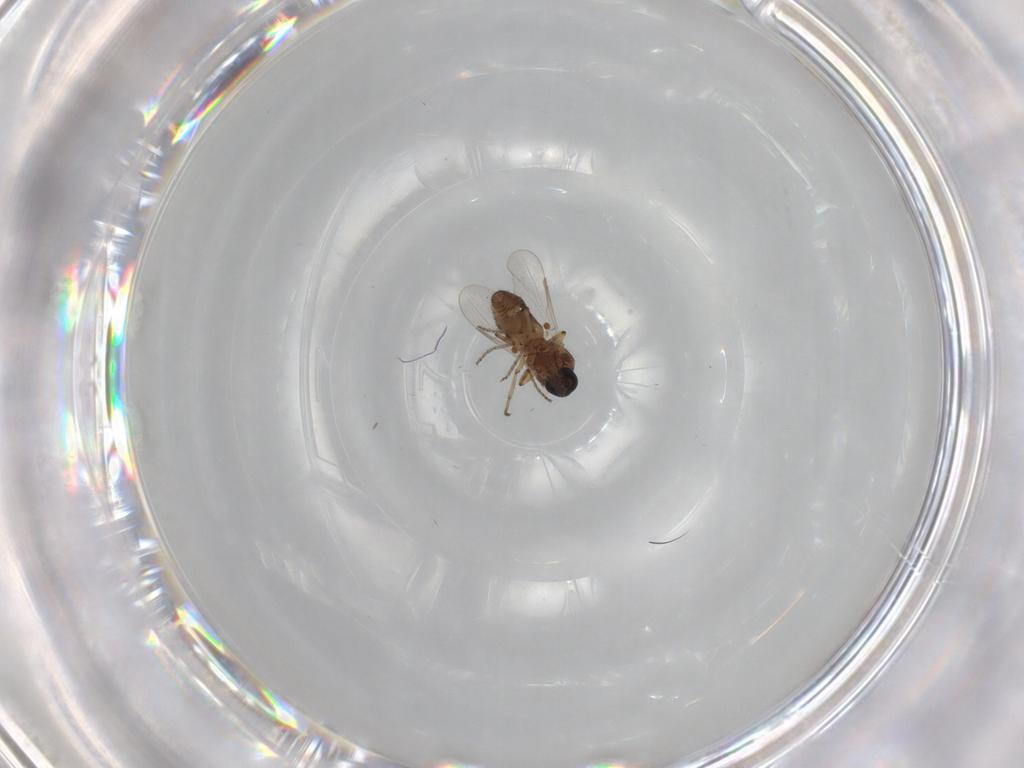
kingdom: Animalia
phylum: Arthropoda
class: Insecta
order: Diptera
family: Ceratopogonidae
